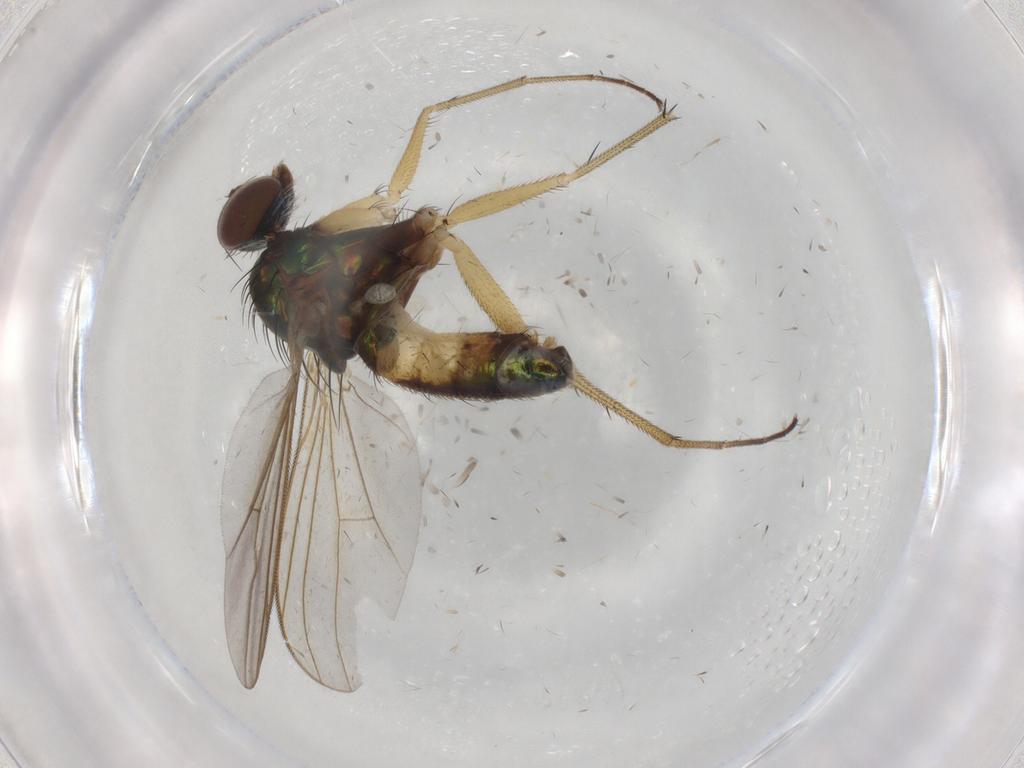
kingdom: Animalia
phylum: Arthropoda
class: Insecta
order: Diptera
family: Dolichopodidae
